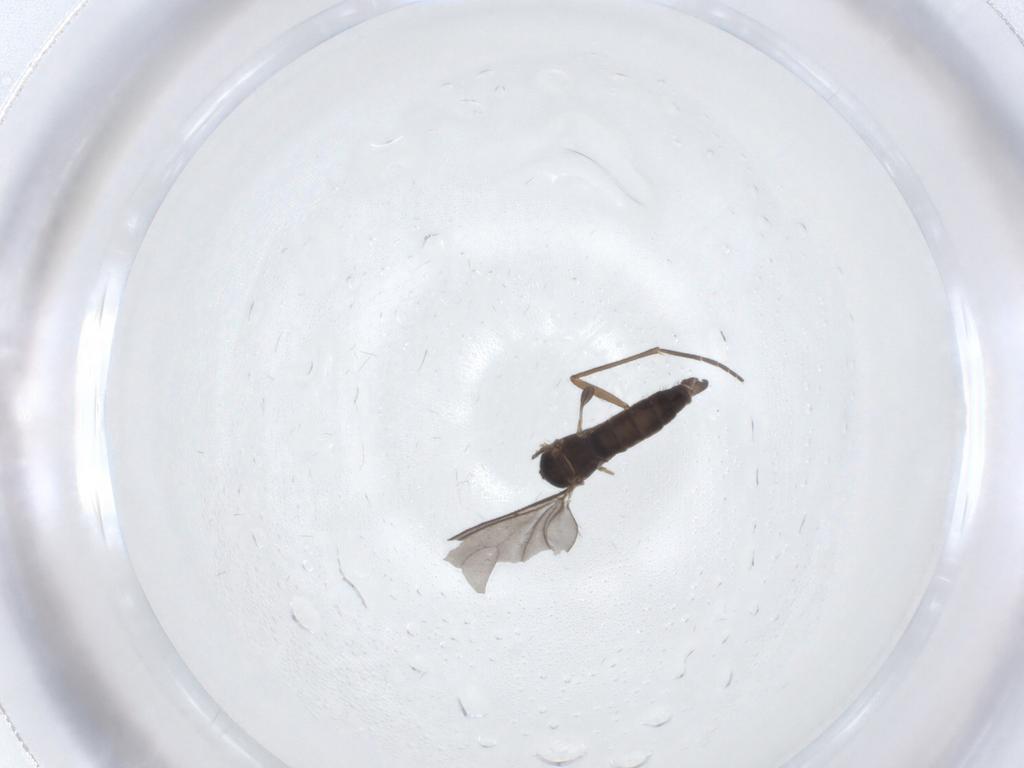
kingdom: Animalia
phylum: Arthropoda
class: Insecta
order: Diptera
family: Sciaridae
